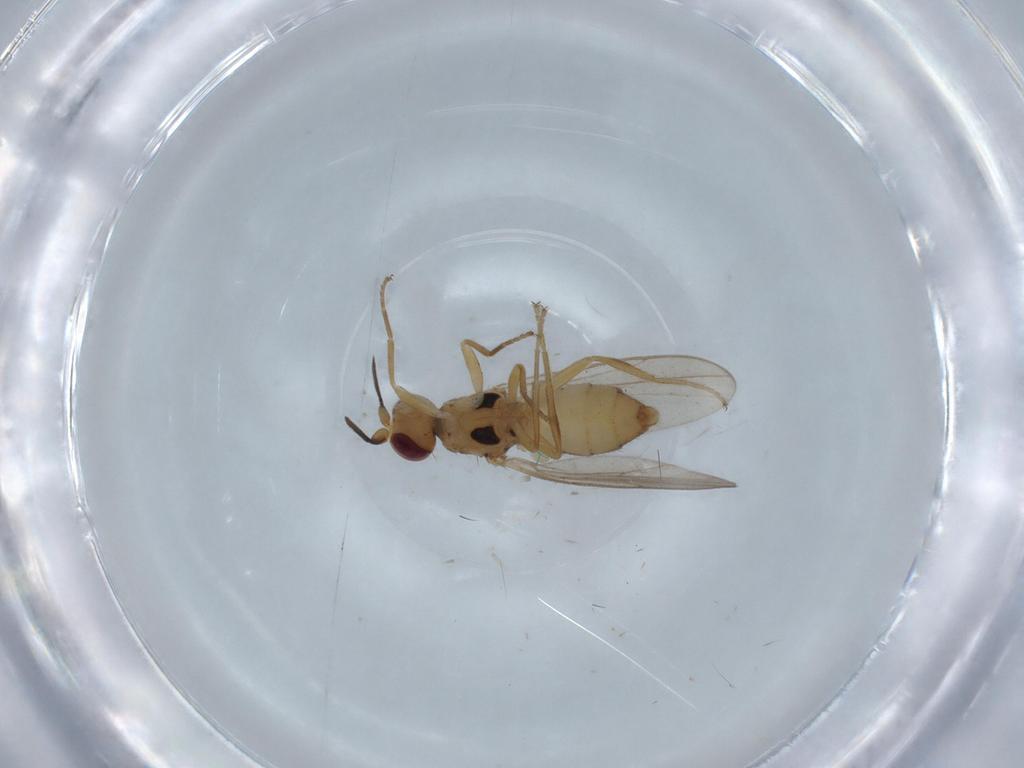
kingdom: Animalia
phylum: Arthropoda
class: Insecta
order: Diptera
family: Chloropidae
